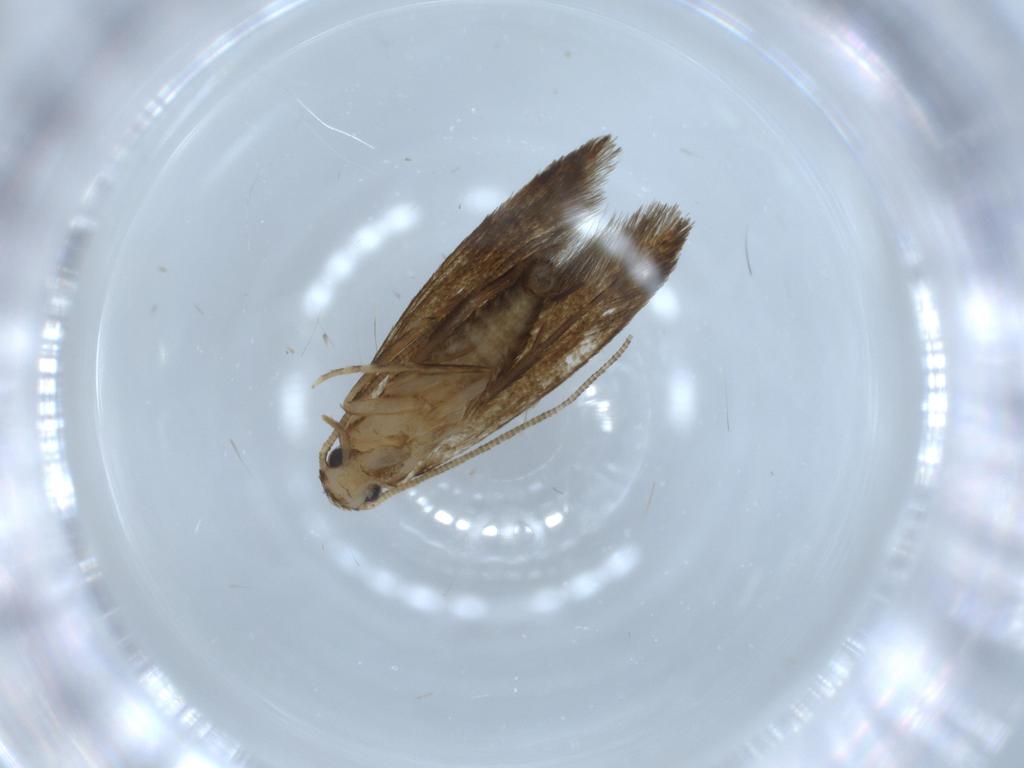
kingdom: Animalia
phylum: Arthropoda
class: Insecta
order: Lepidoptera
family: Tineidae
